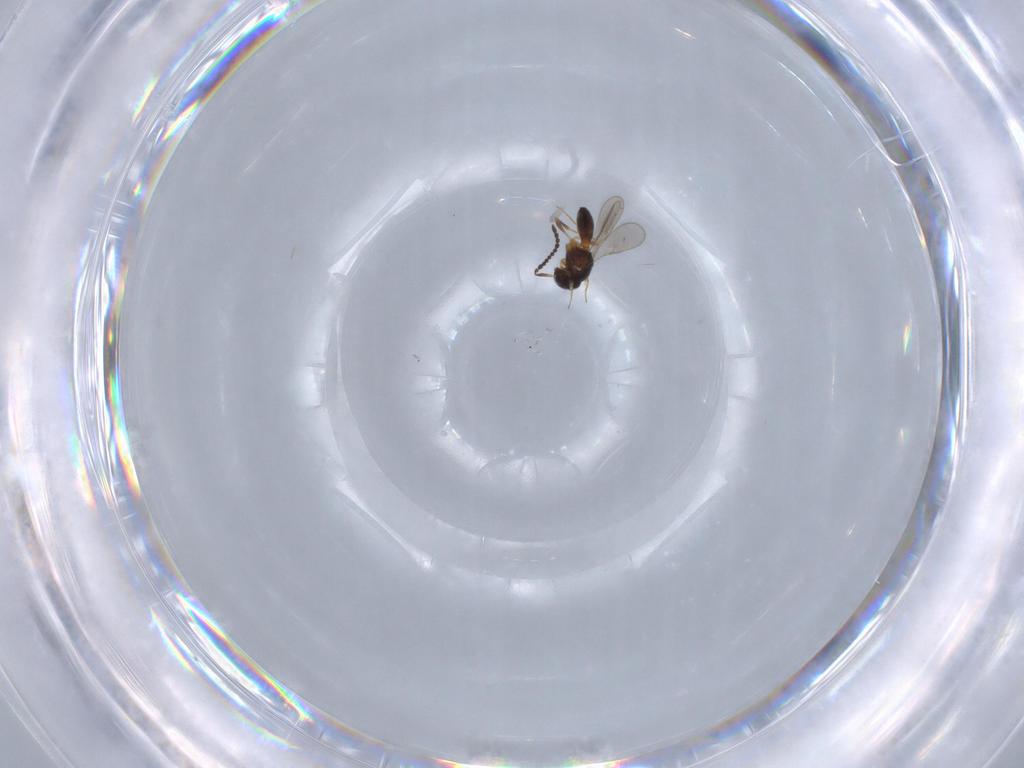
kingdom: Animalia
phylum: Arthropoda
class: Insecta
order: Hymenoptera
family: Scelionidae
